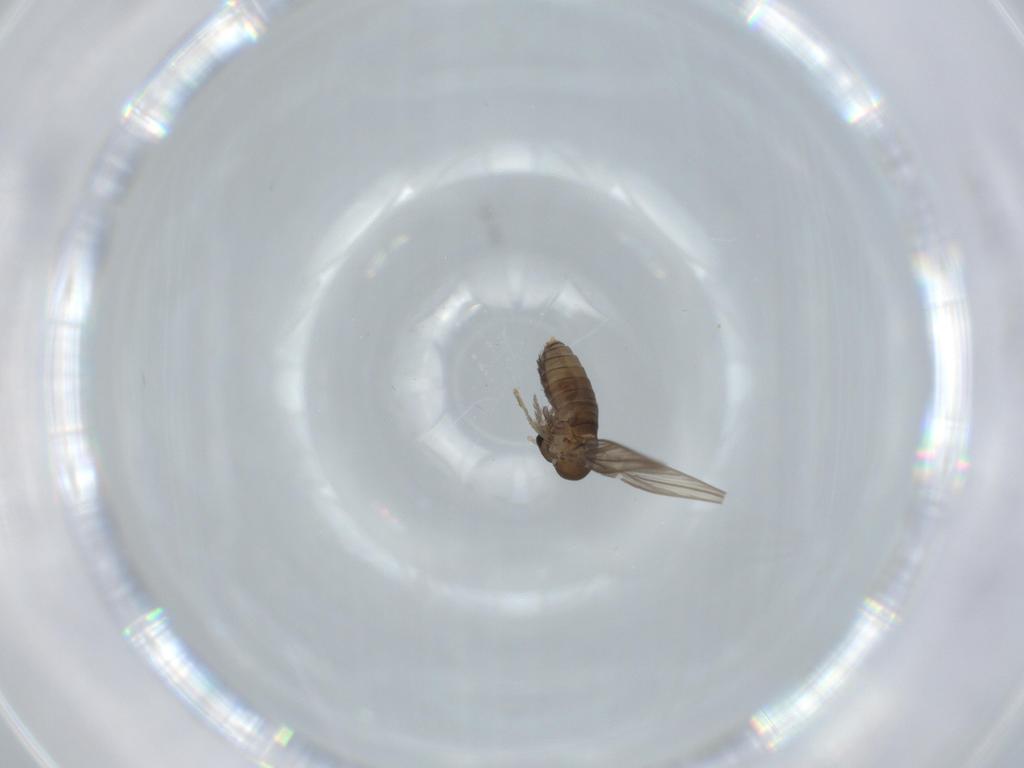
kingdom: Animalia
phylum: Arthropoda
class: Insecta
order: Diptera
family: Psychodidae
